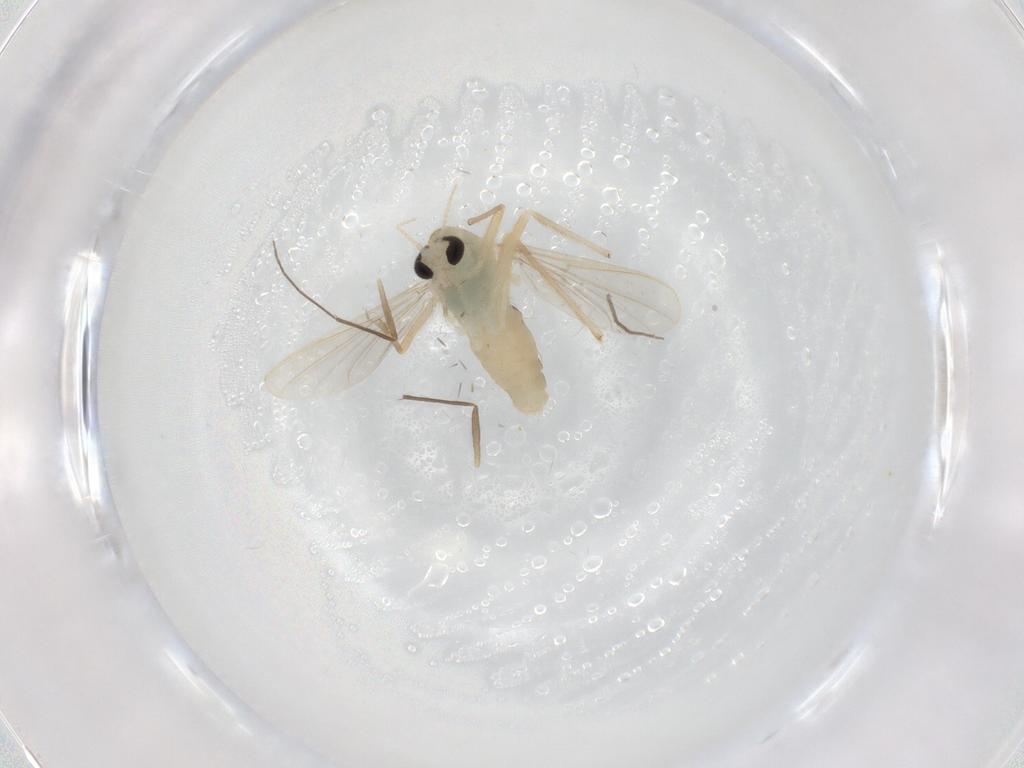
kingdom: Animalia
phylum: Arthropoda
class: Insecta
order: Diptera
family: Chironomidae
